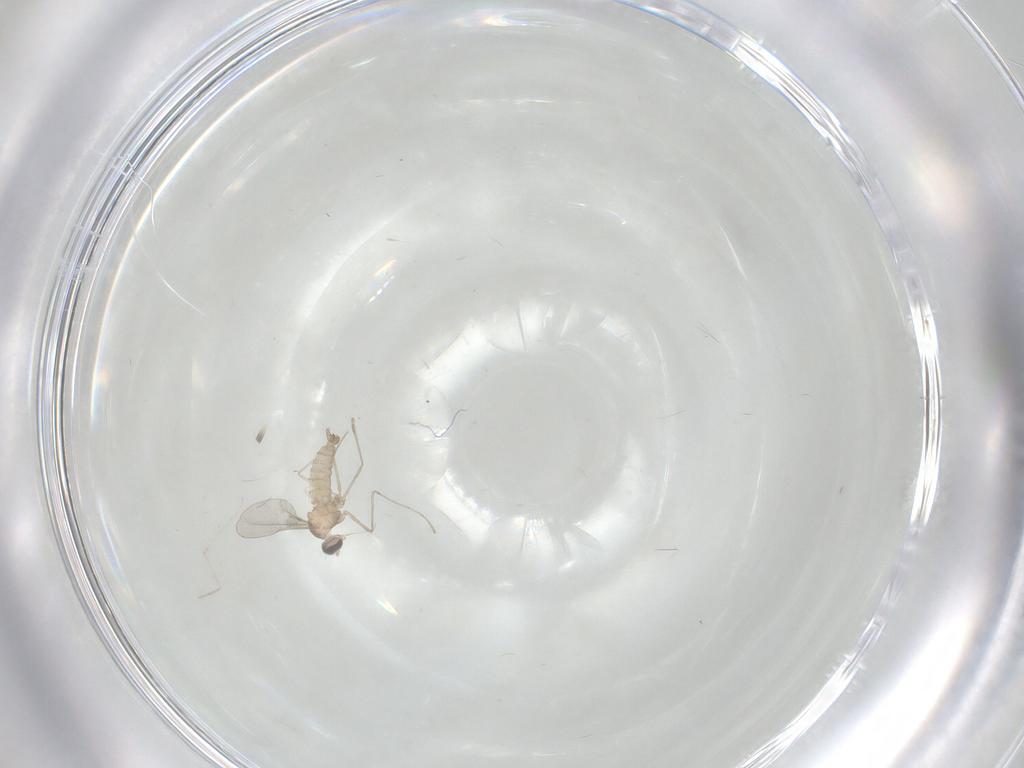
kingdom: Animalia
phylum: Arthropoda
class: Insecta
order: Diptera
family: Cecidomyiidae
